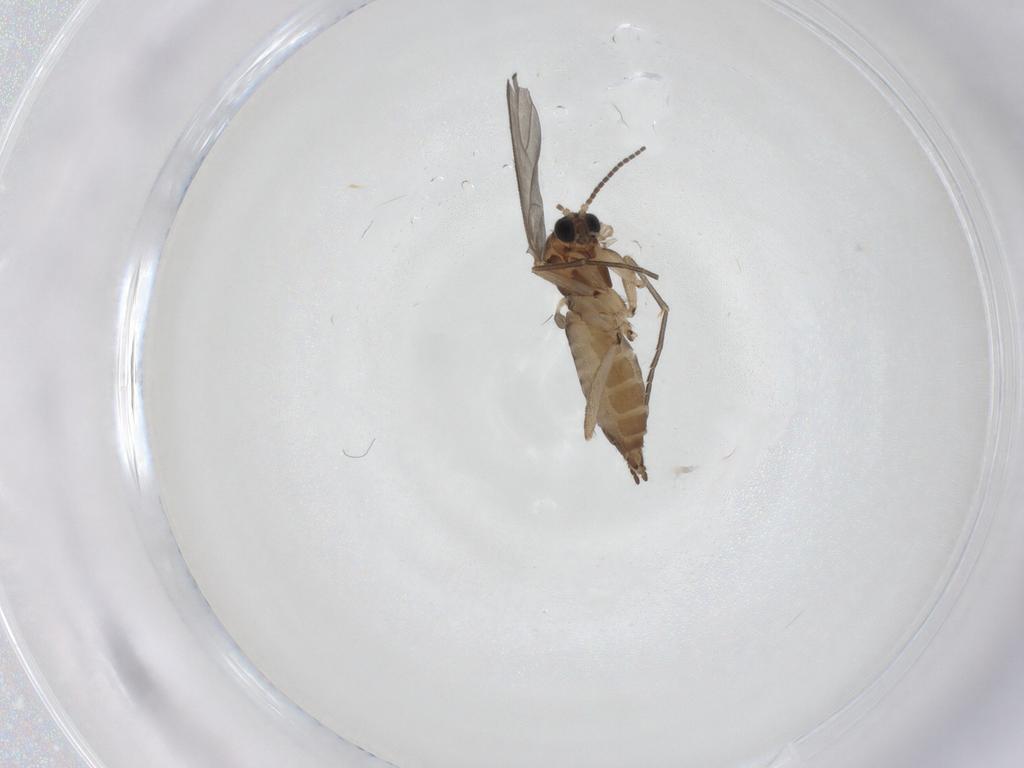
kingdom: Animalia
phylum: Arthropoda
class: Insecta
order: Diptera
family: Sciaridae
